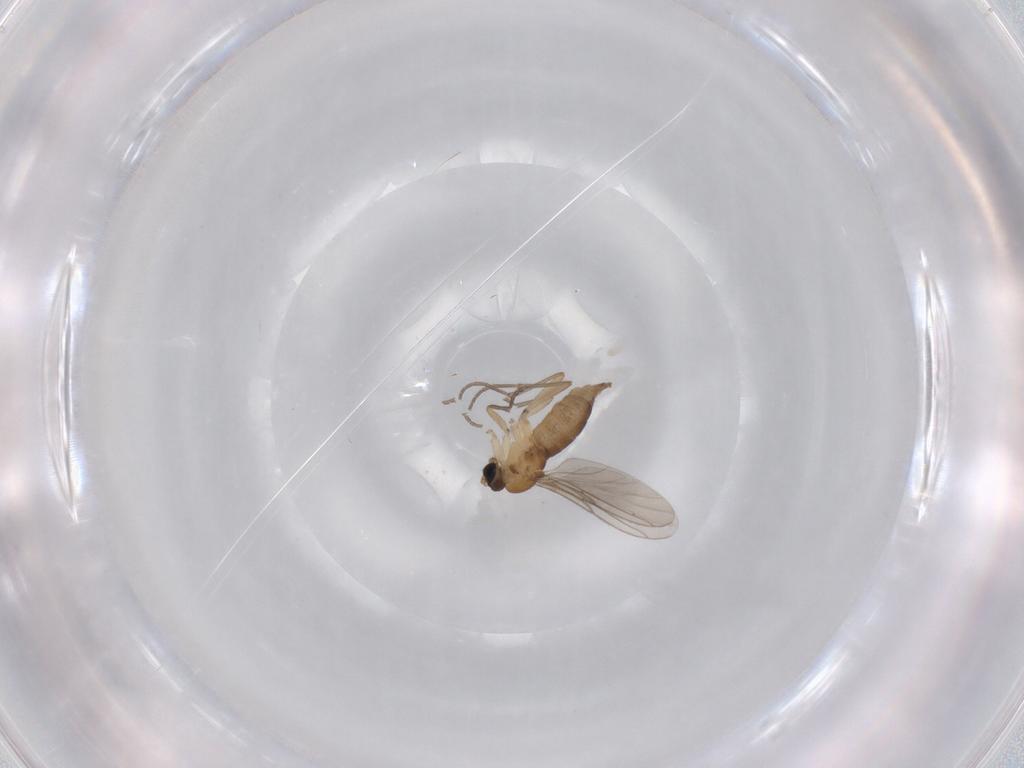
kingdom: Animalia
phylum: Arthropoda
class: Insecta
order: Diptera
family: Sciaridae
